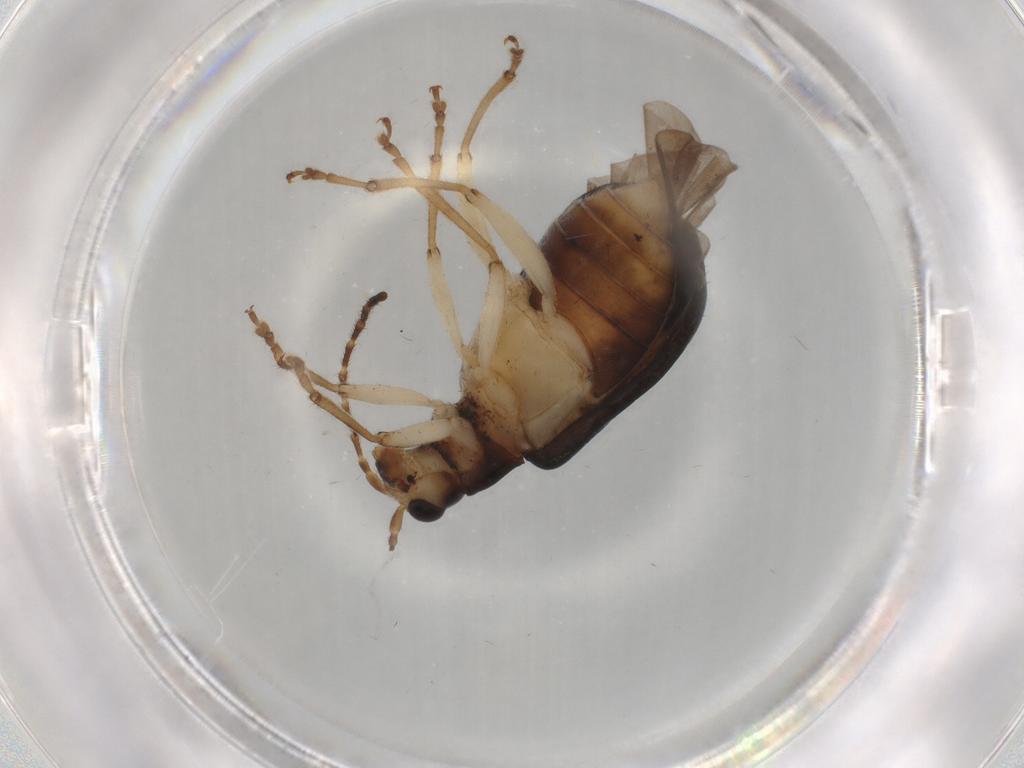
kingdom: Animalia
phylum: Arthropoda
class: Insecta
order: Coleoptera
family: Chrysomelidae
